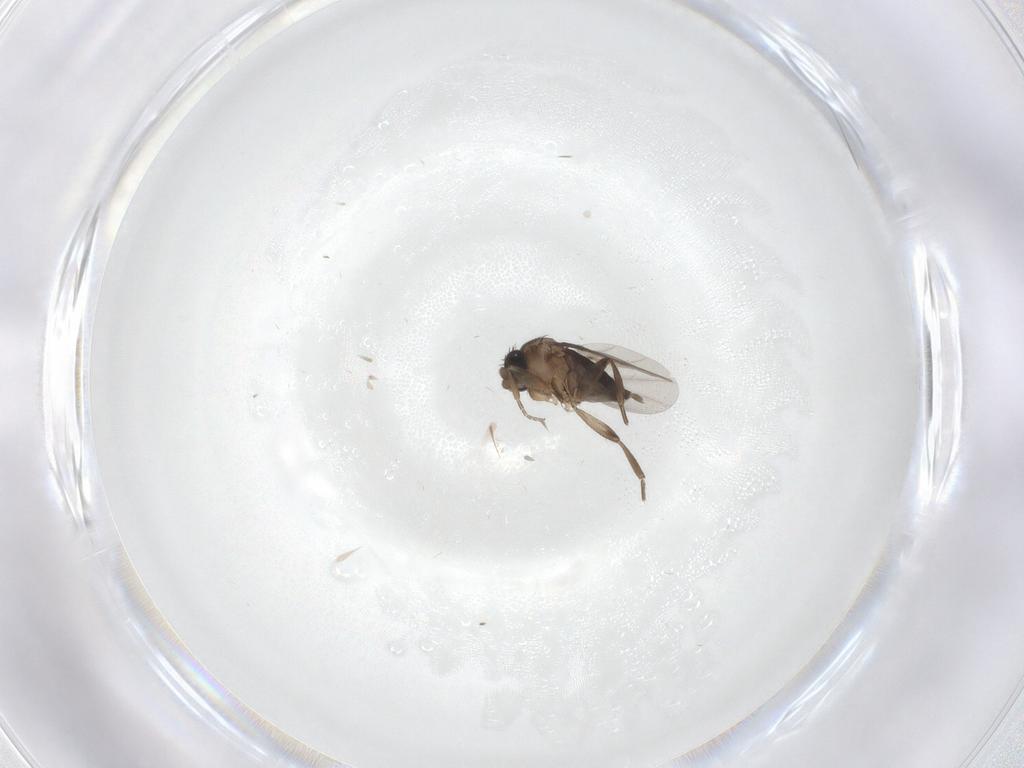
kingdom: Animalia
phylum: Arthropoda
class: Insecta
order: Diptera
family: Phoridae
